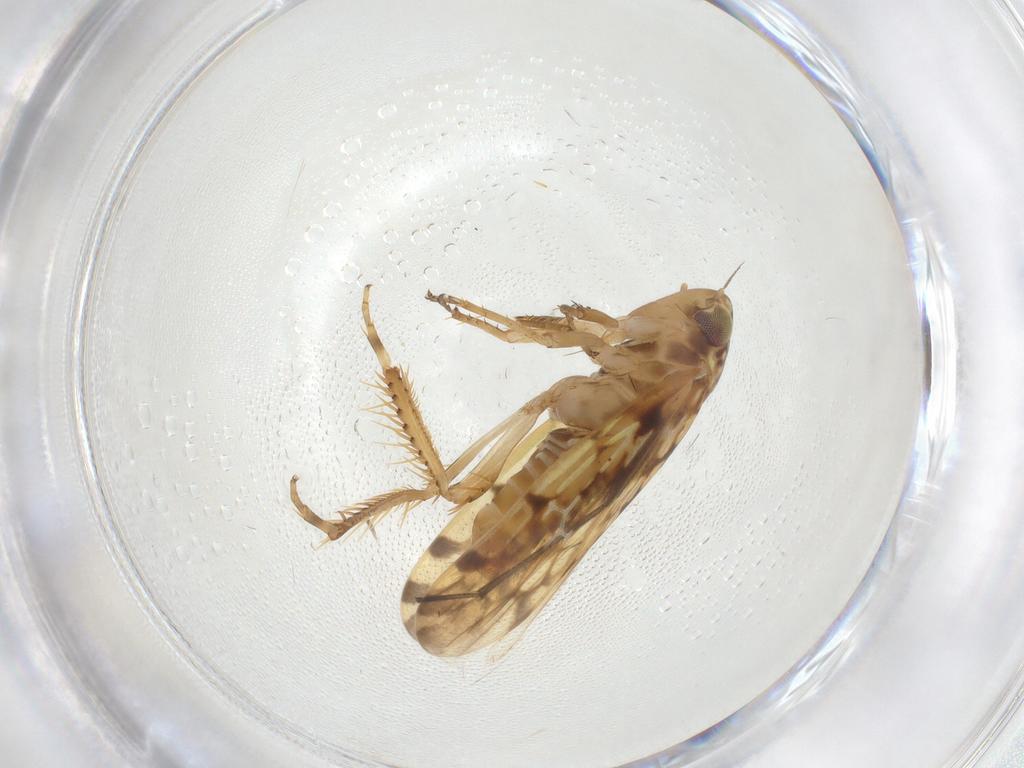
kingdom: Animalia
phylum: Arthropoda
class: Insecta
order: Hemiptera
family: Cicadellidae
